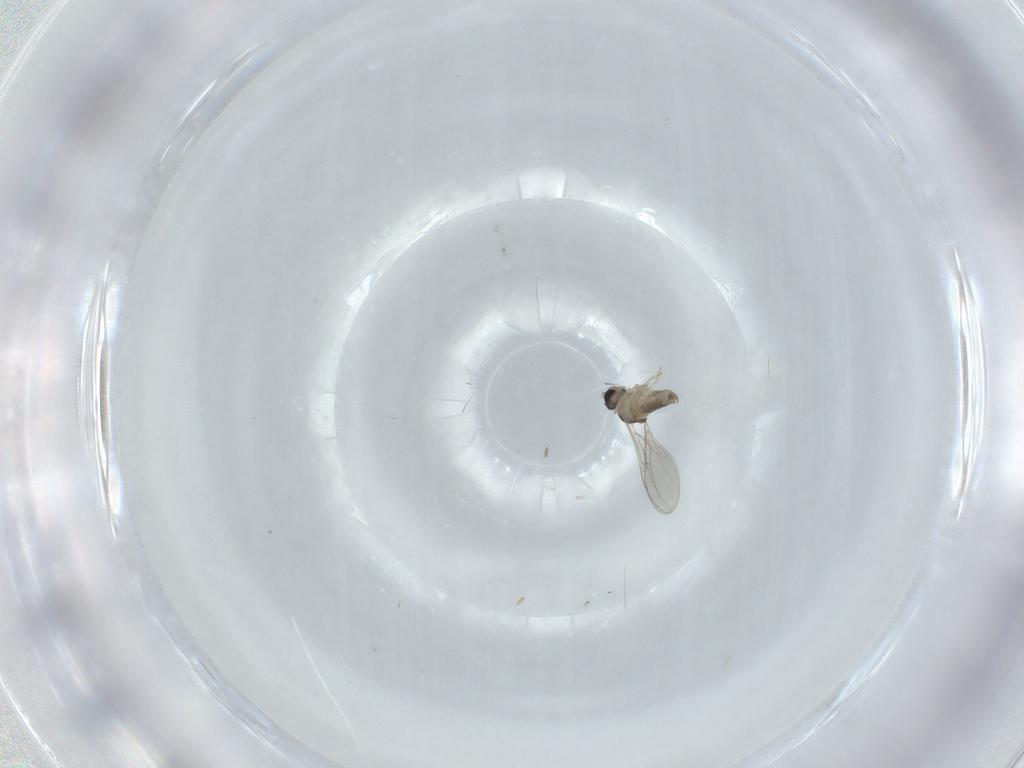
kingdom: Animalia
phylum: Arthropoda
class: Insecta
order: Diptera
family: Cecidomyiidae
